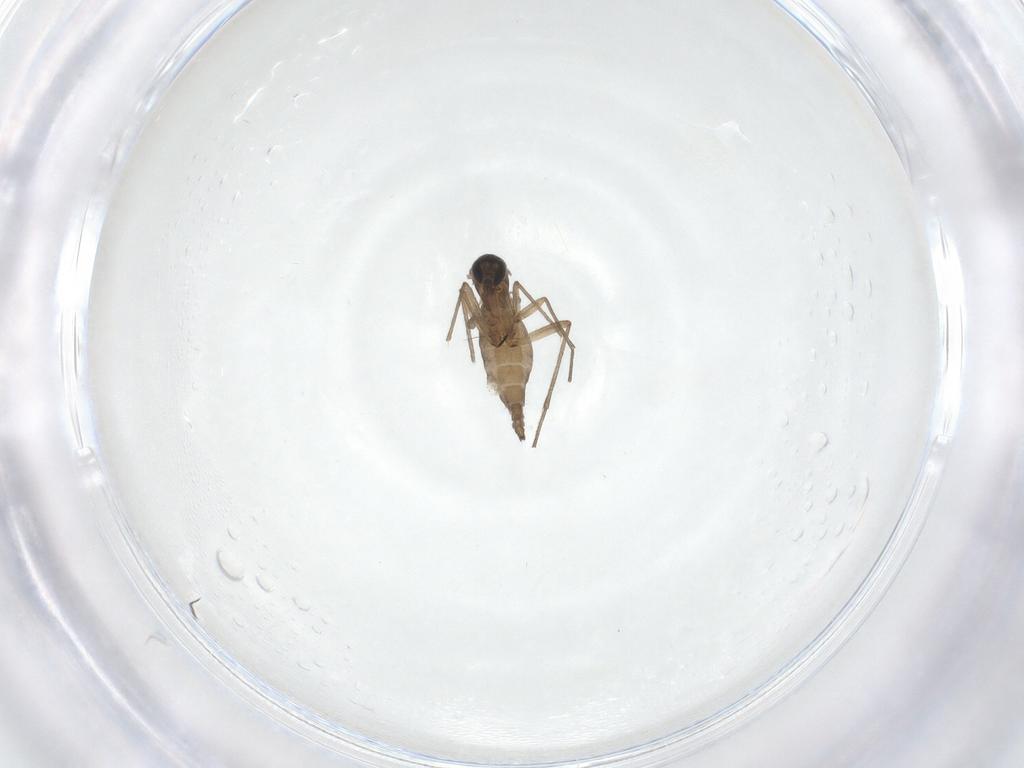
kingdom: Animalia
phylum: Arthropoda
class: Insecta
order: Diptera
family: Sciaridae
